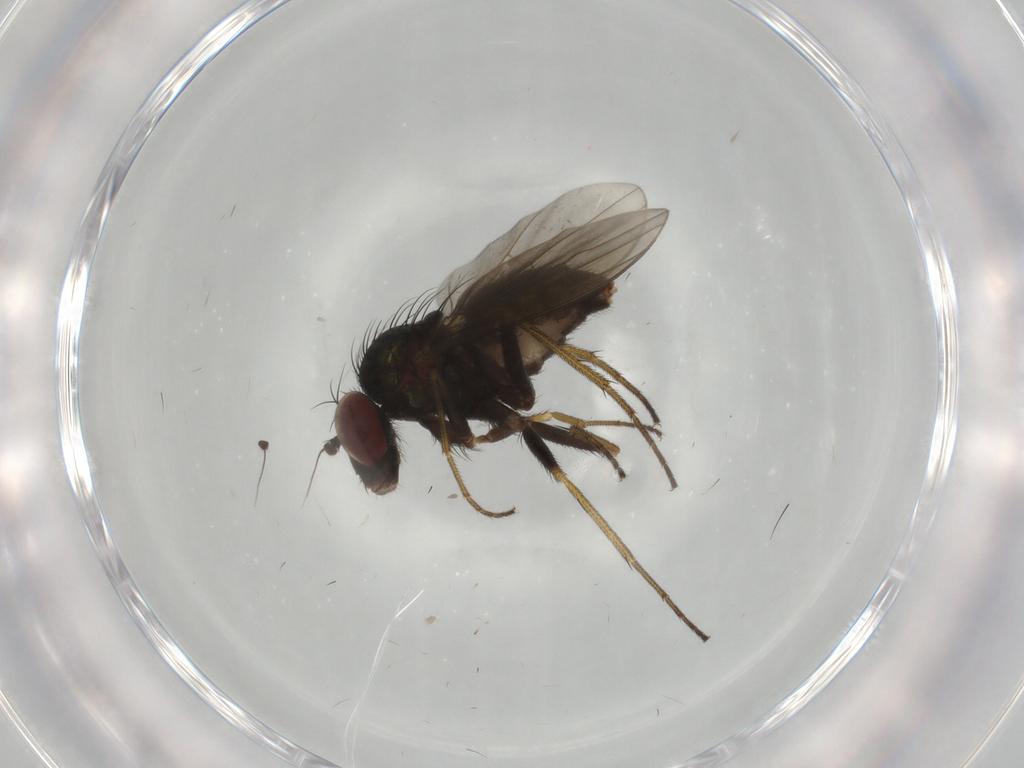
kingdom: Animalia
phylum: Arthropoda
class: Insecta
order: Diptera
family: Dolichopodidae
